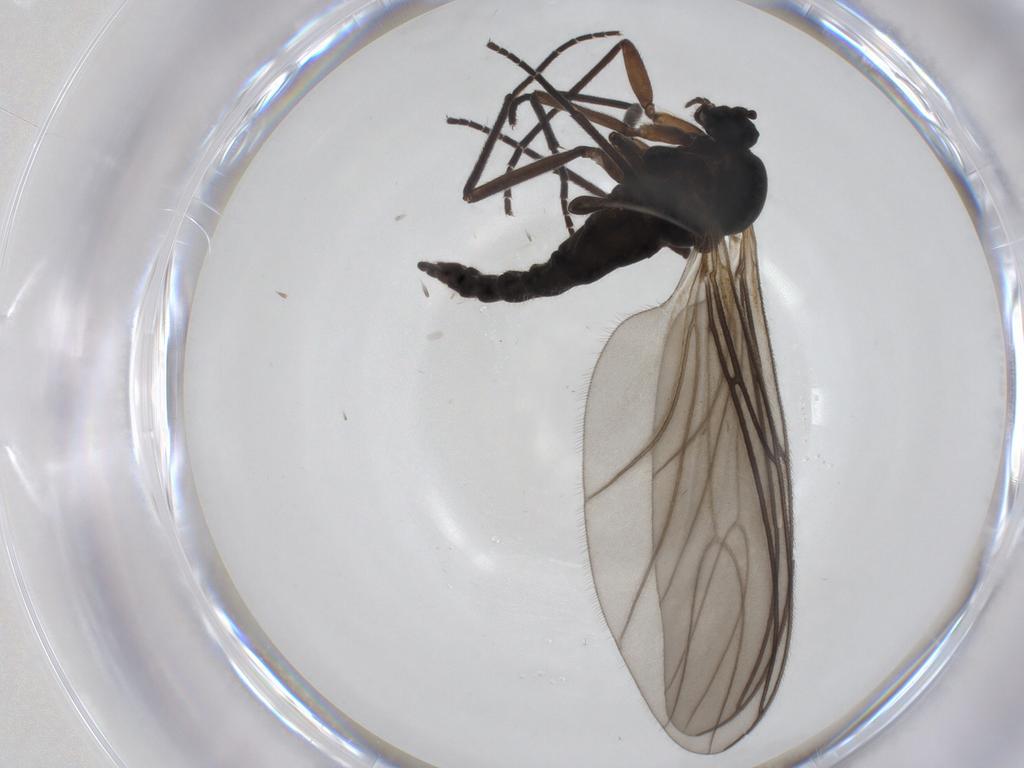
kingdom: Animalia
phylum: Arthropoda
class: Insecta
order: Diptera
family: Sciaridae
